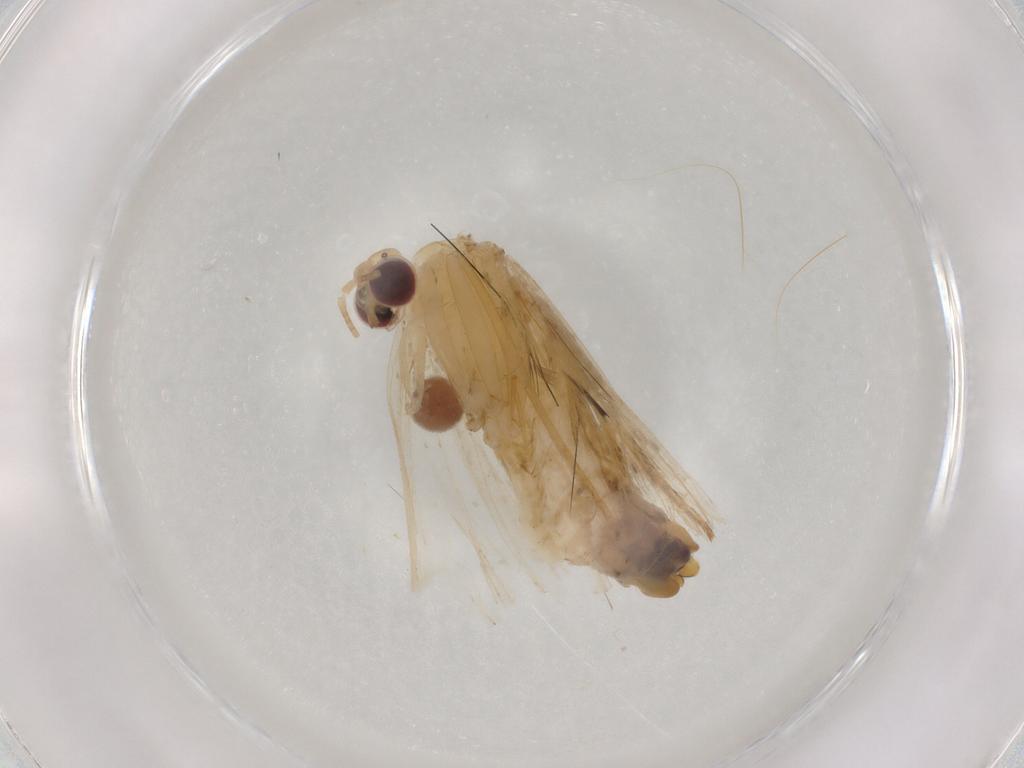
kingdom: Animalia
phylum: Arthropoda
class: Insecta
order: Lepidoptera
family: Erebidae
